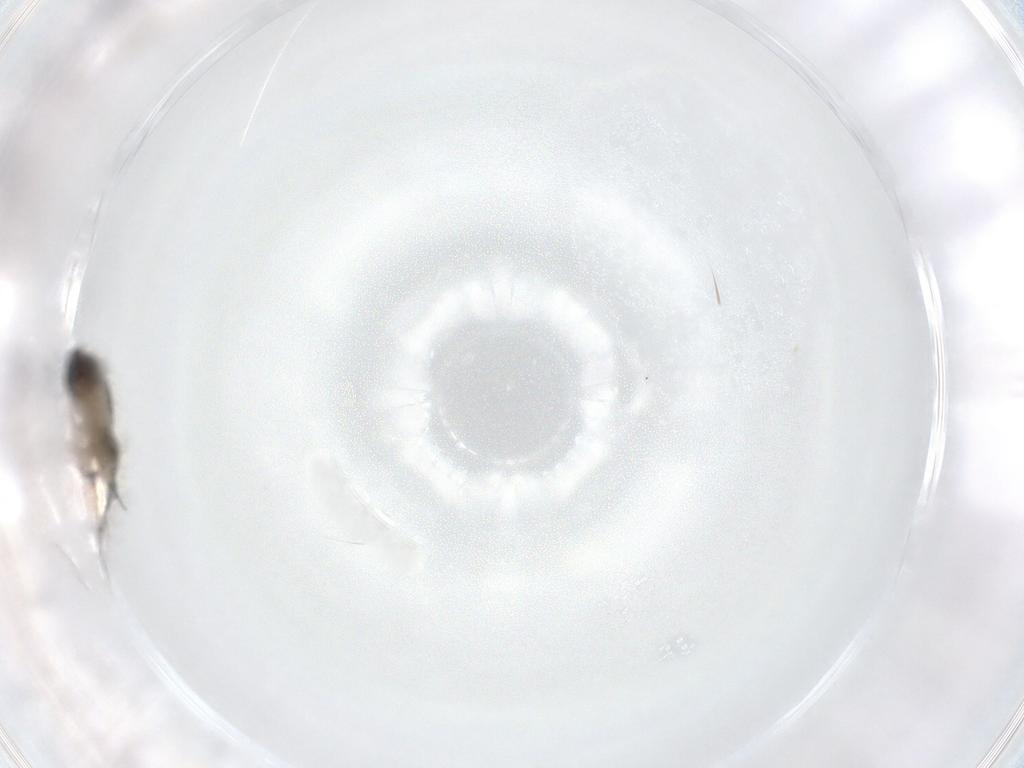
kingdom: Animalia
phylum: Arthropoda
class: Insecta
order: Diptera
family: Phoridae
